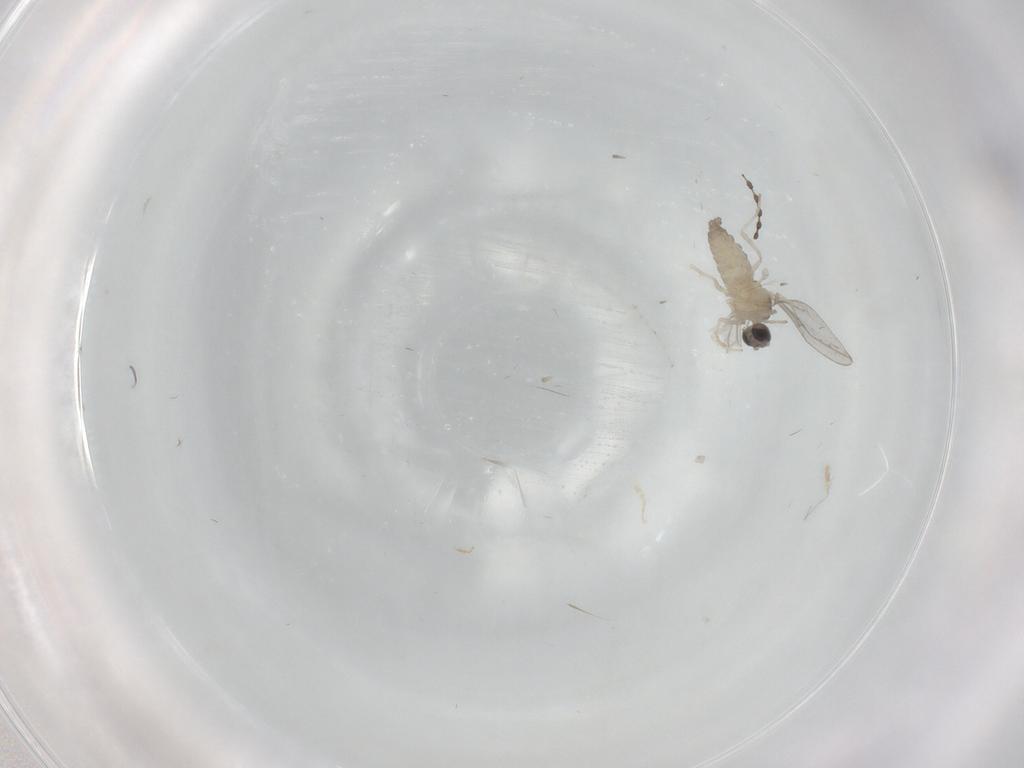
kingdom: Animalia
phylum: Arthropoda
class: Insecta
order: Diptera
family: Cecidomyiidae
